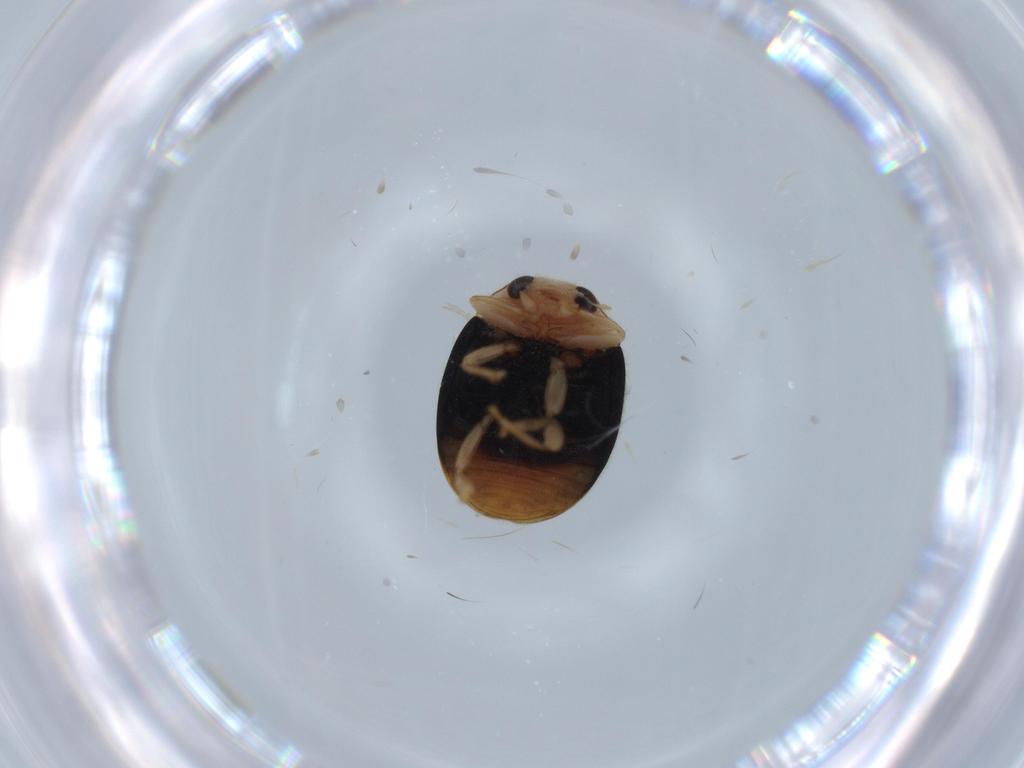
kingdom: Animalia
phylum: Arthropoda
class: Insecta
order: Coleoptera
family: Coccinellidae
